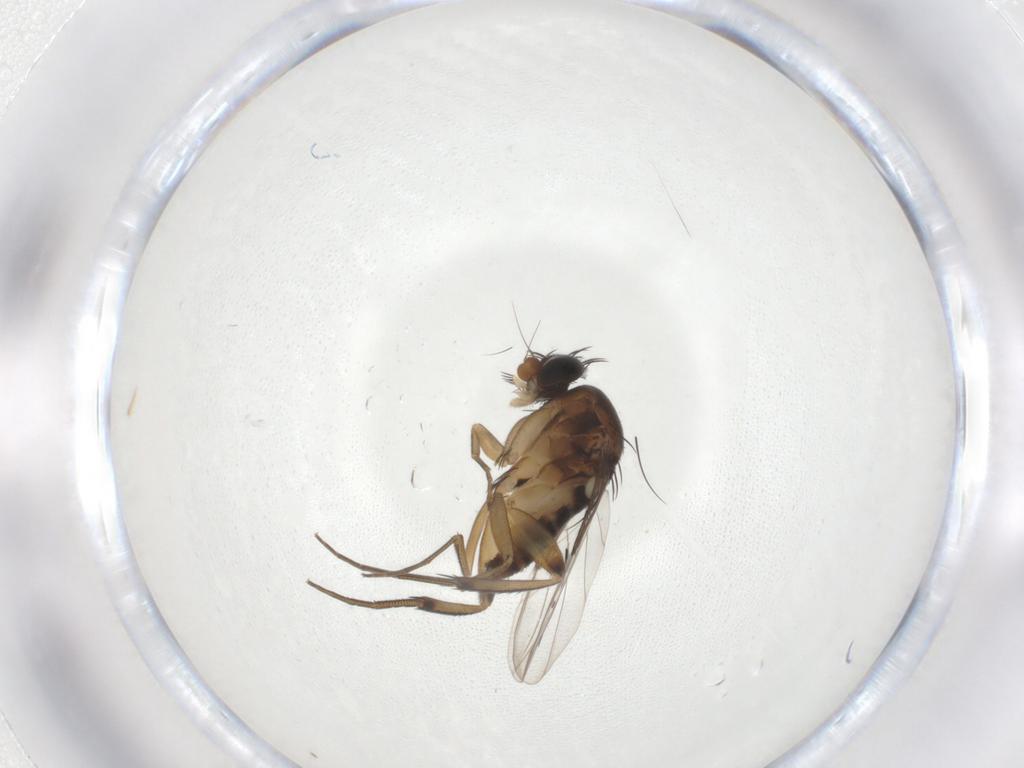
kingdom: Animalia
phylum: Arthropoda
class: Insecta
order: Diptera
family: Phoridae
